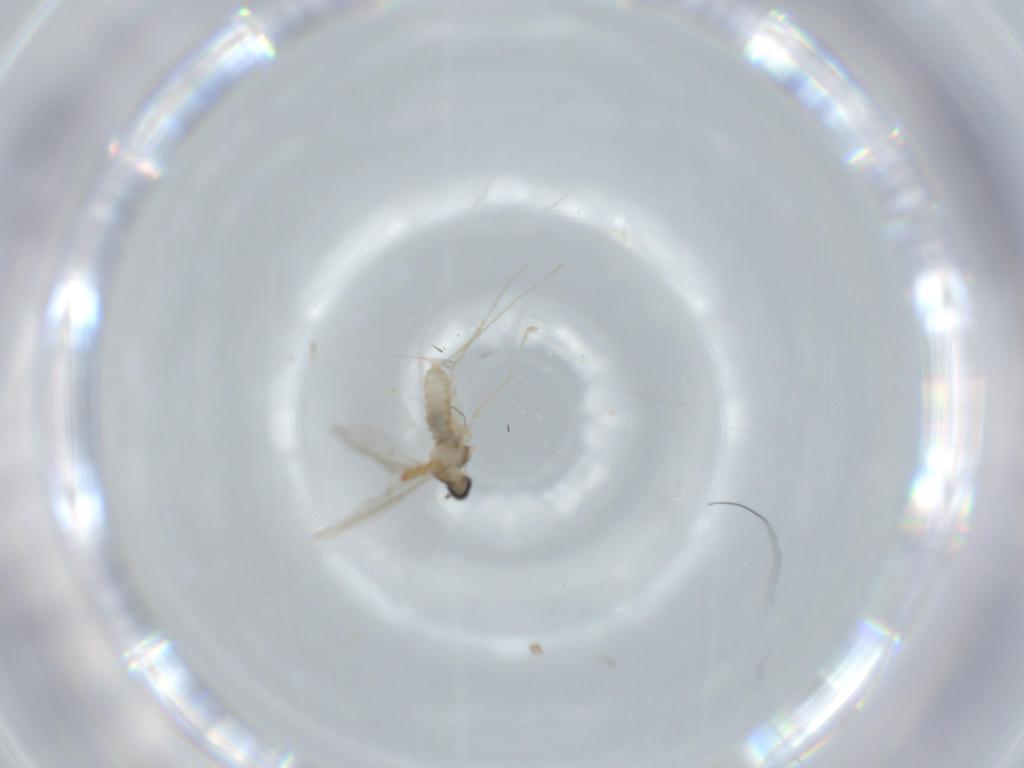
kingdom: Animalia
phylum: Arthropoda
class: Insecta
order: Diptera
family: Cecidomyiidae
